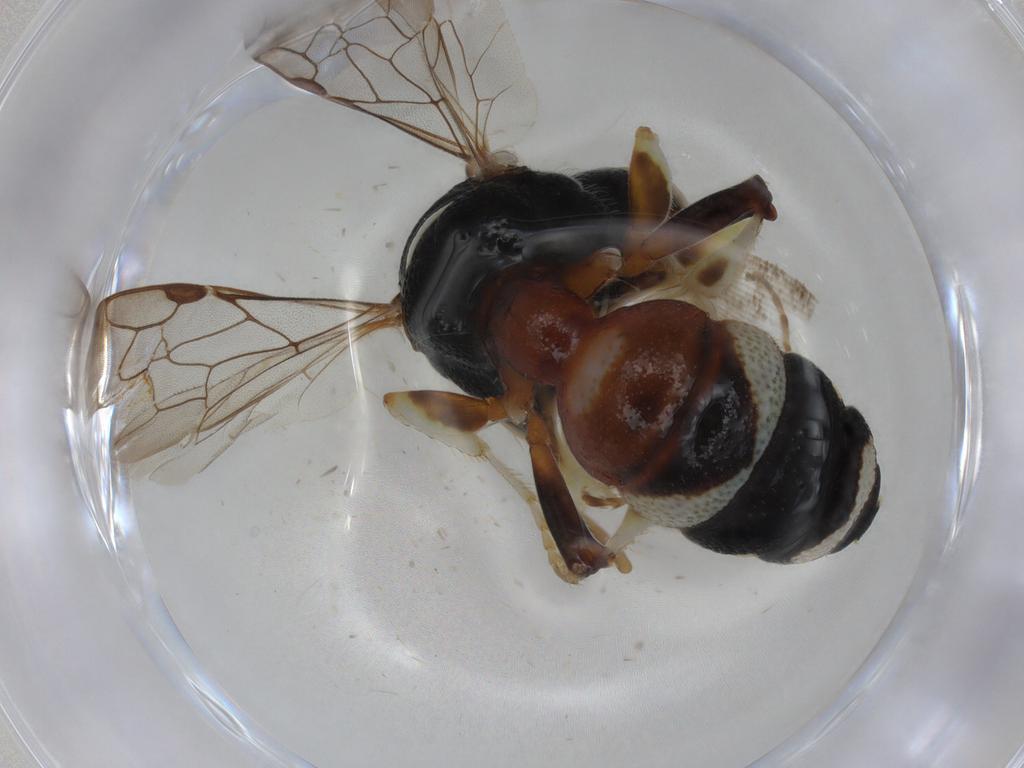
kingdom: Animalia
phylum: Arthropoda
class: Insecta
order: Hymenoptera
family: Crabronidae
